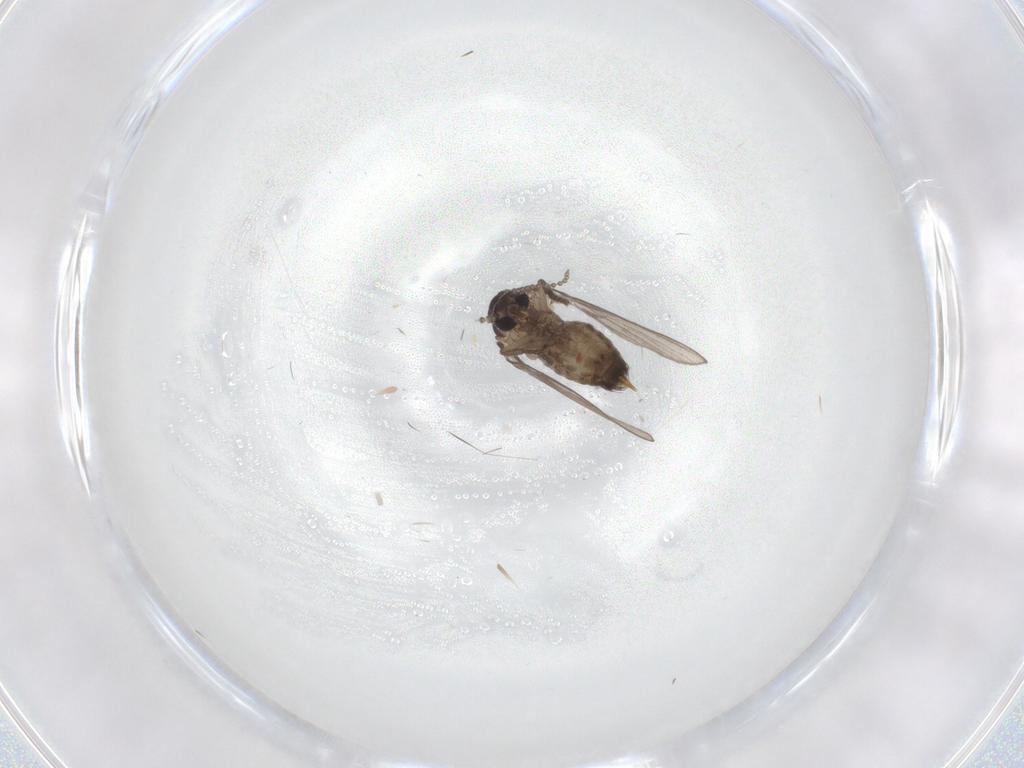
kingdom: Animalia
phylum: Arthropoda
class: Insecta
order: Diptera
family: Psychodidae
